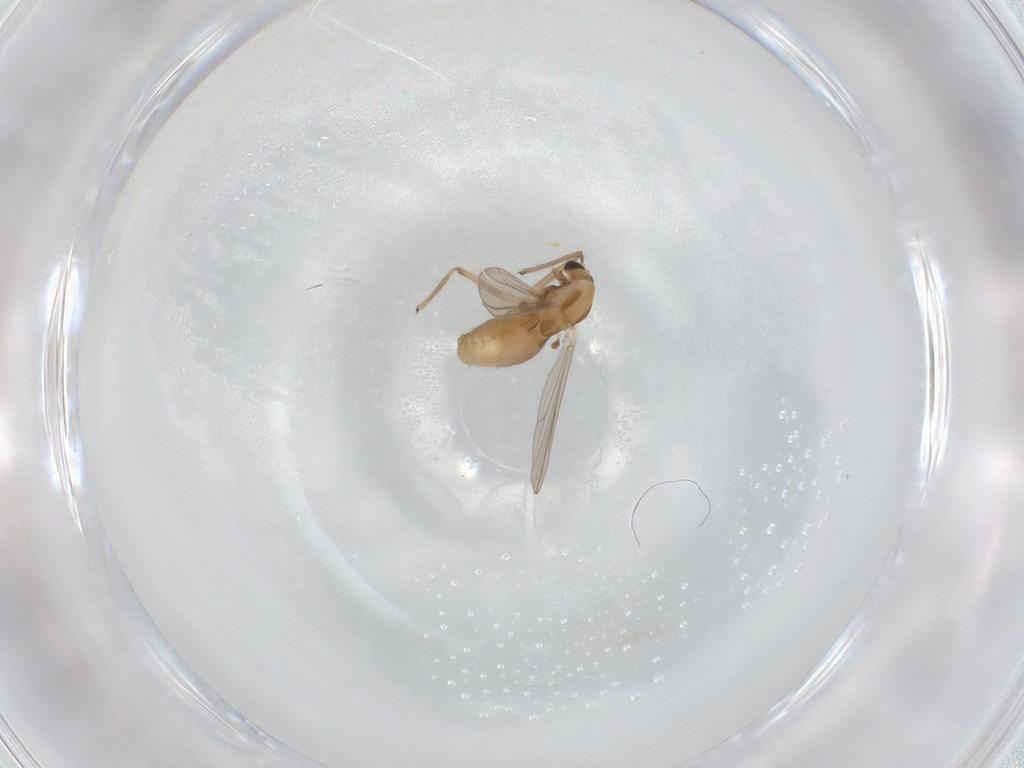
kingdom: Animalia
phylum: Arthropoda
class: Insecta
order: Diptera
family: Chironomidae
